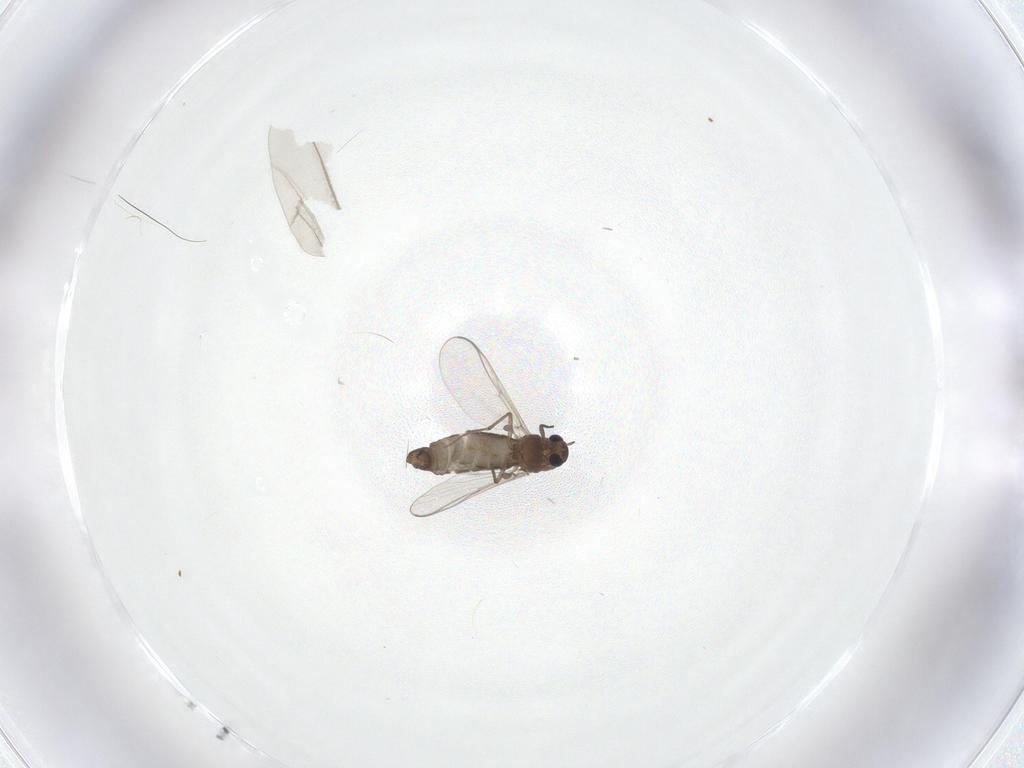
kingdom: Animalia
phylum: Arthropoda
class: Insecta
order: Diptera
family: Chironomidae
